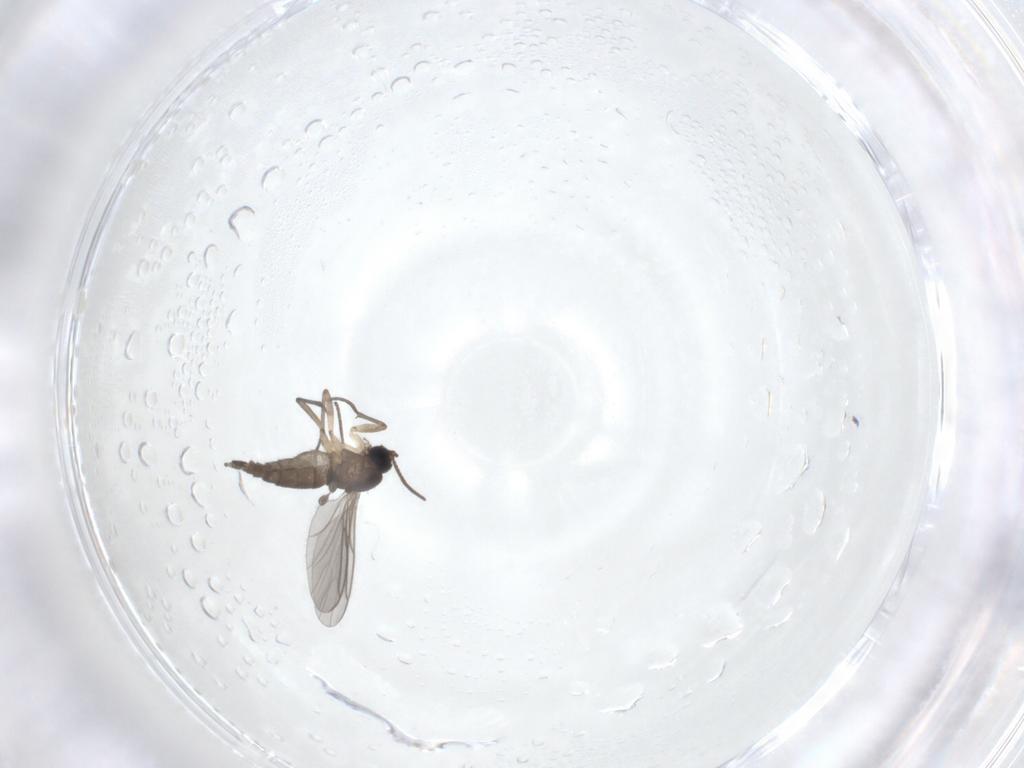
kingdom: Animalia
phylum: Arthropoda
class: Insecta
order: Diptera
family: Sciaridae
